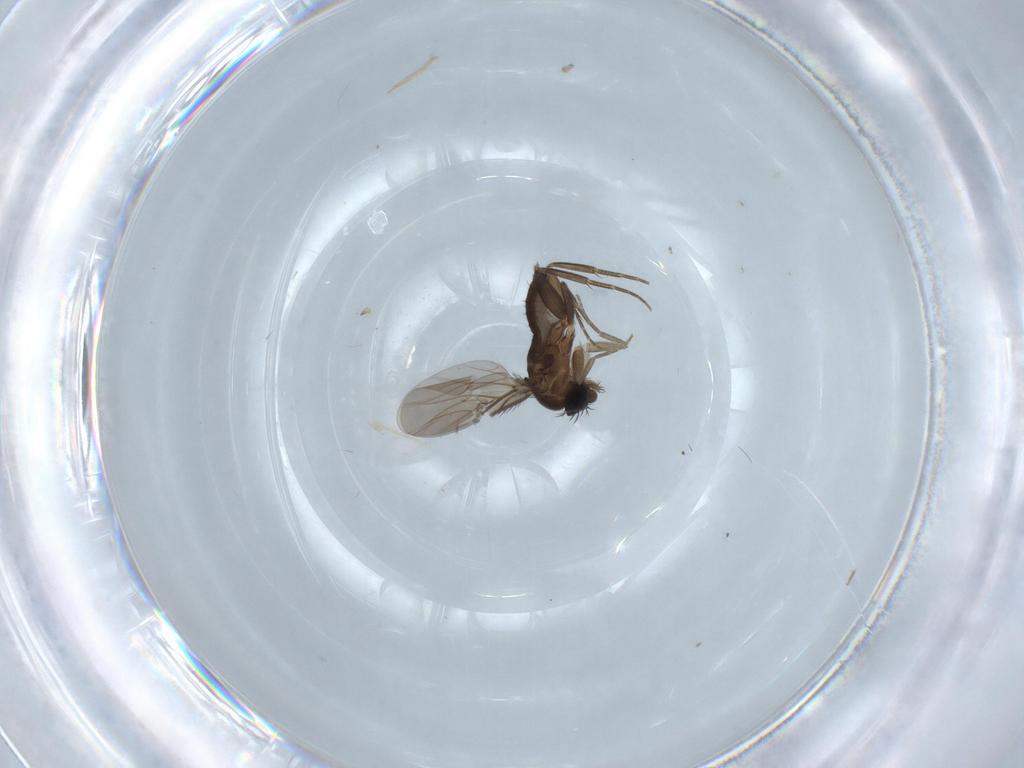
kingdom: Animalia
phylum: Arthropoda
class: Insecta
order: Diptera
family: Phoridae
